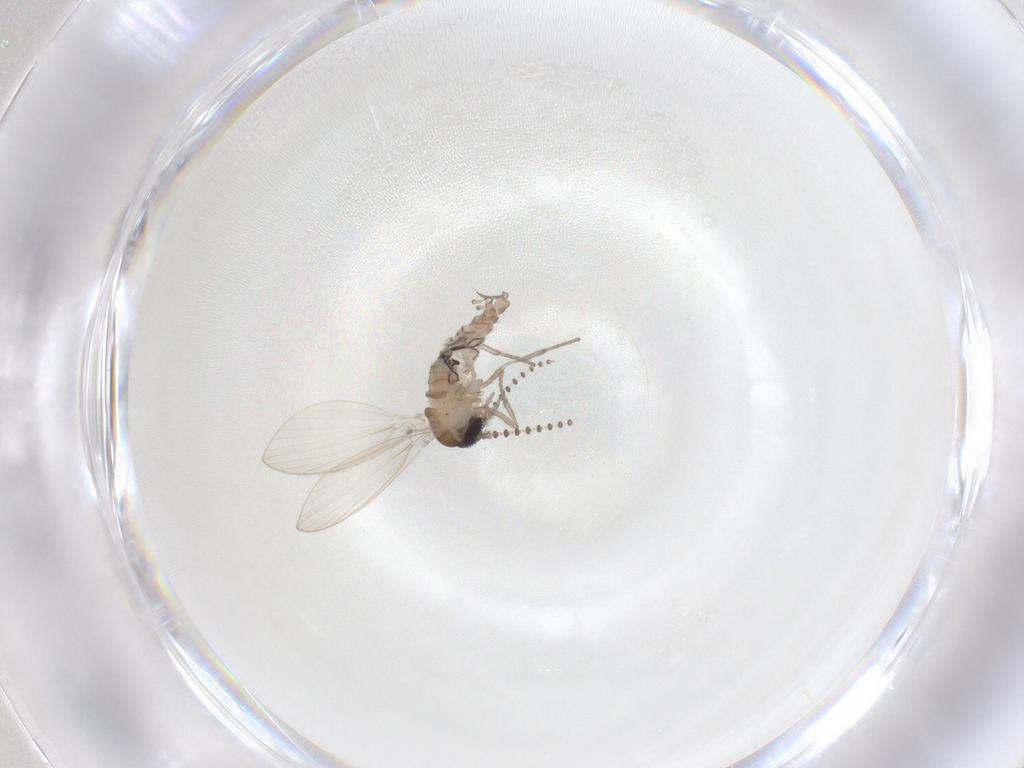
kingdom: Animalia
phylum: Arthropoda
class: Insecta
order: Diptera
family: Psychodidae
